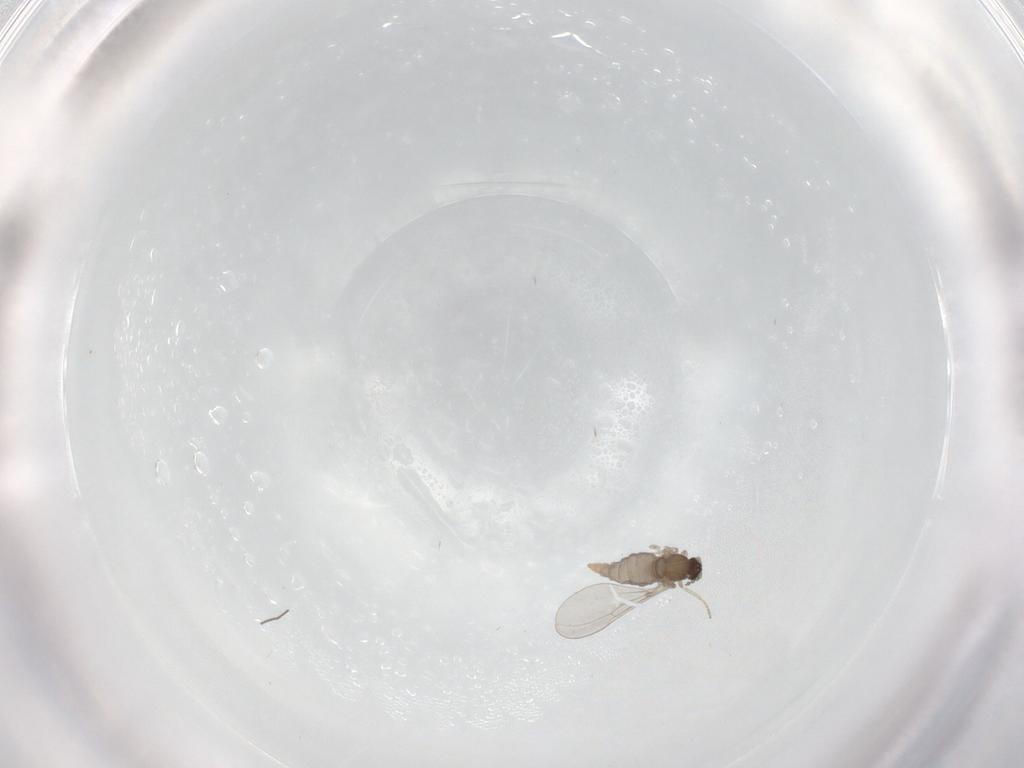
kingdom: Animalia
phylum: Arthropoda
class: Insecta
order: Diptera
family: Cecidomyiidae
